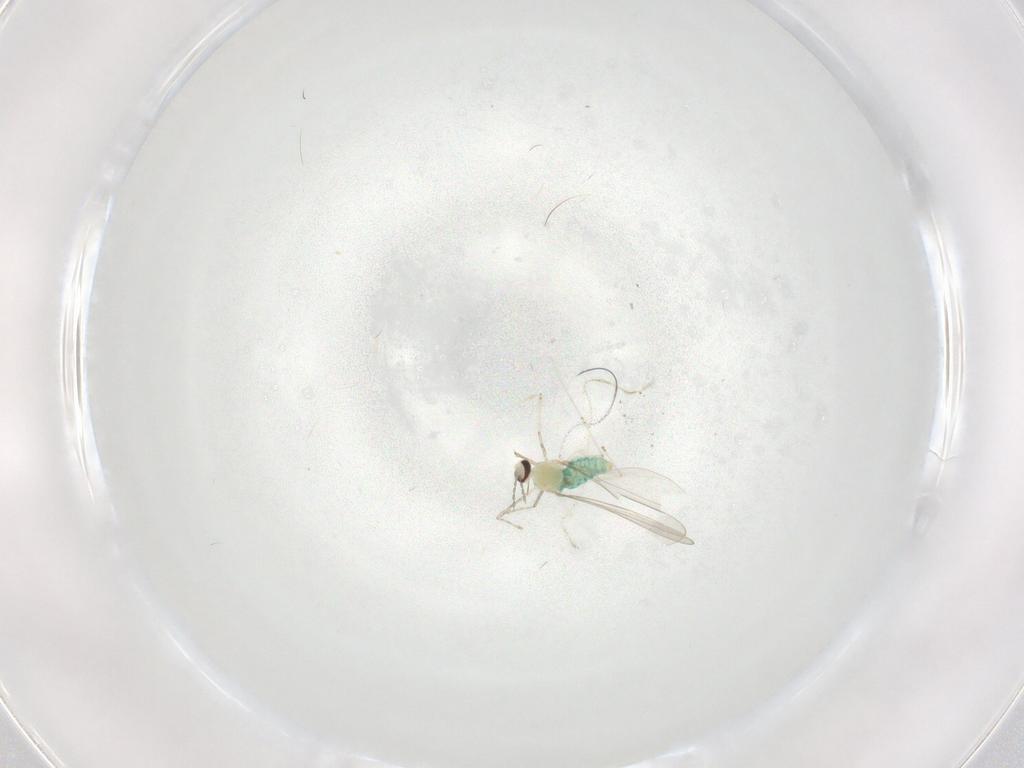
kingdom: Animalia
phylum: Arthropoda
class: Insecta
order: Diptera
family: Cecidomyiidae
